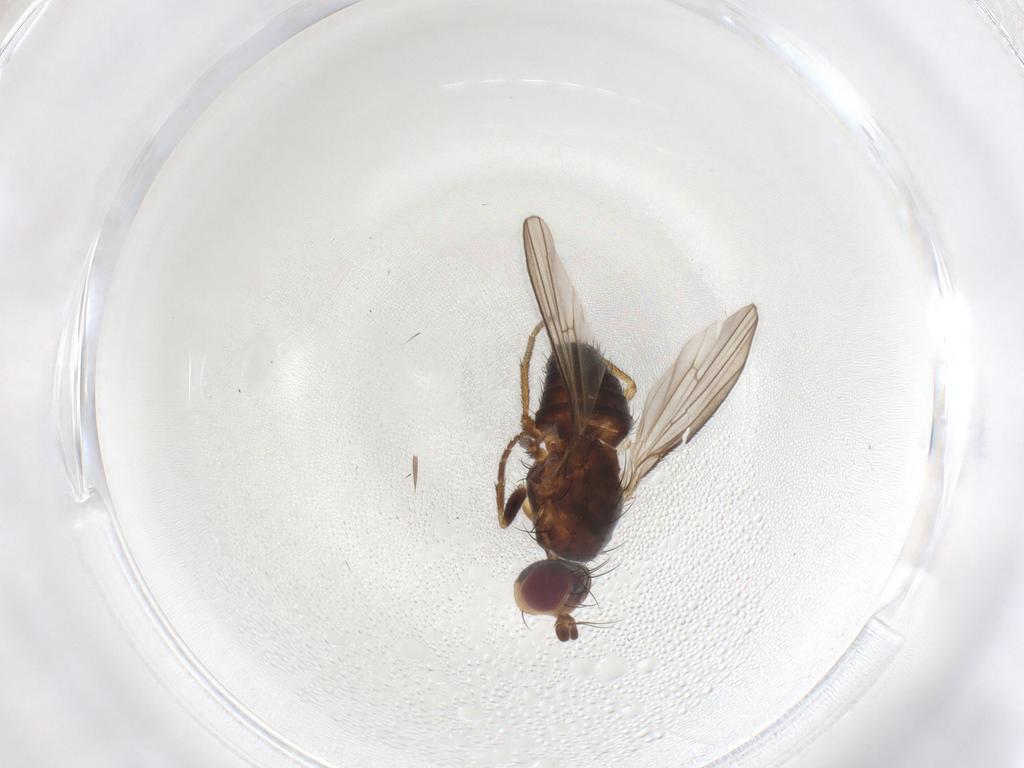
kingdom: Animalia
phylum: Arthropoda
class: Insecta
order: Diptera
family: Heleomyzidae
